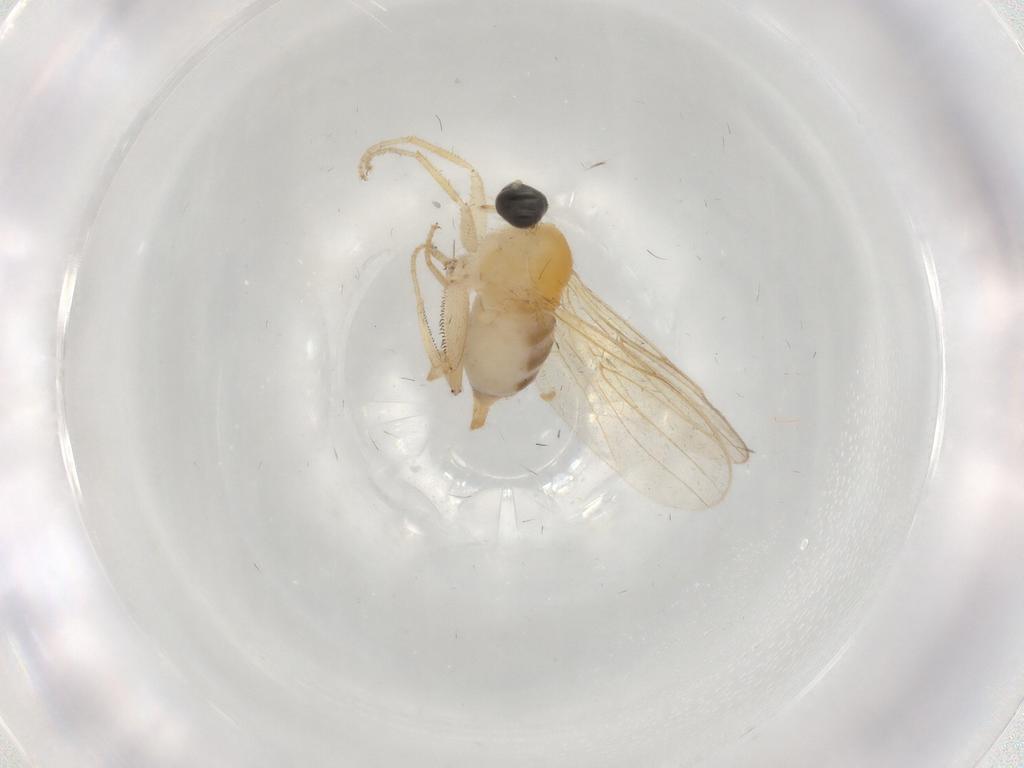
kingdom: Animalia
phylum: Arthropoda
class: Insecta
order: Diptera
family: Hybotidae
